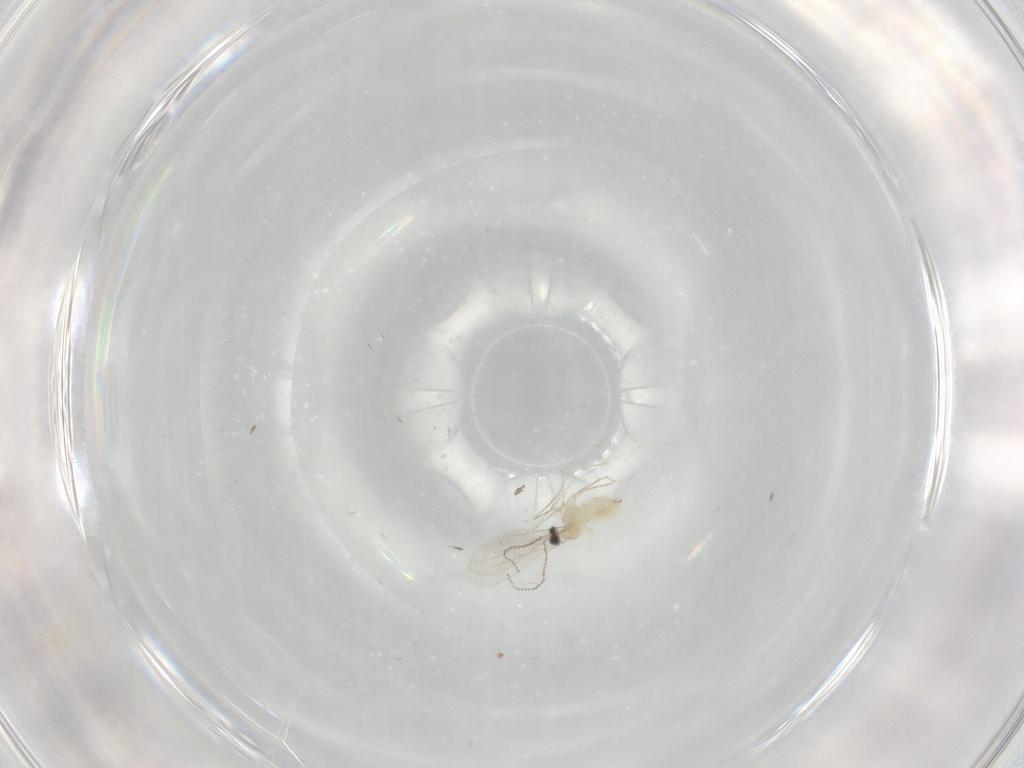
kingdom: Animalia
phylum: Arthropoda
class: Insecta
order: Diptera
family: Cecidomyiidae
